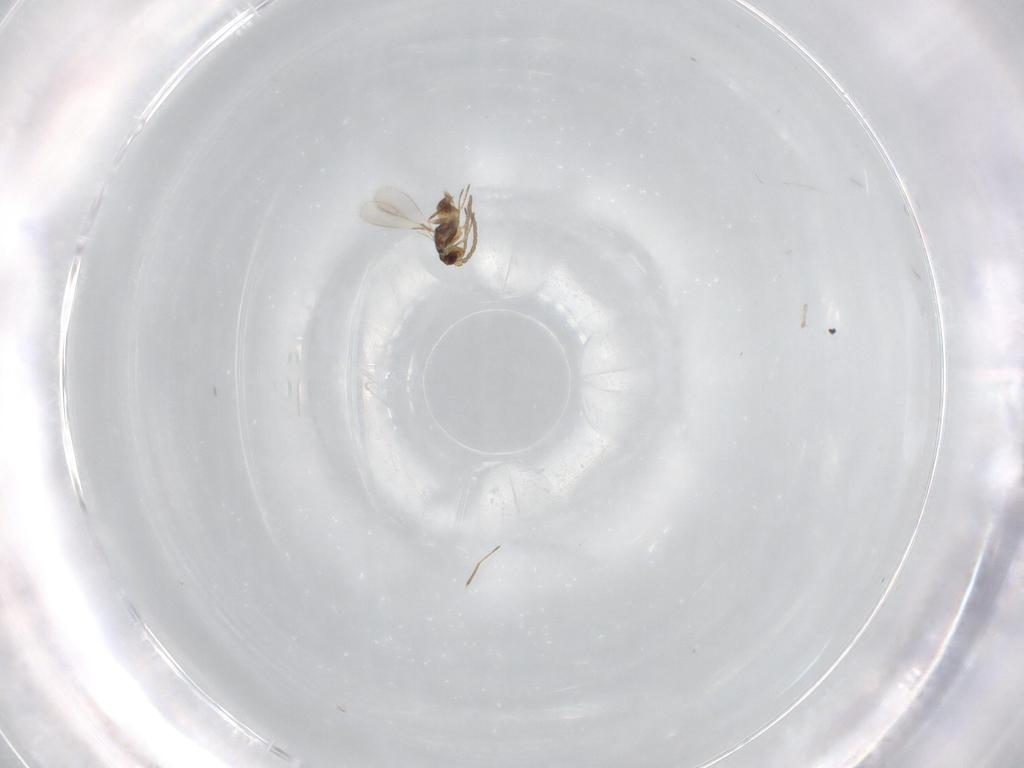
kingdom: Animalia
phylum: Arthropoda
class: Insecta
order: Hymenoptera
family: Mymaridae
